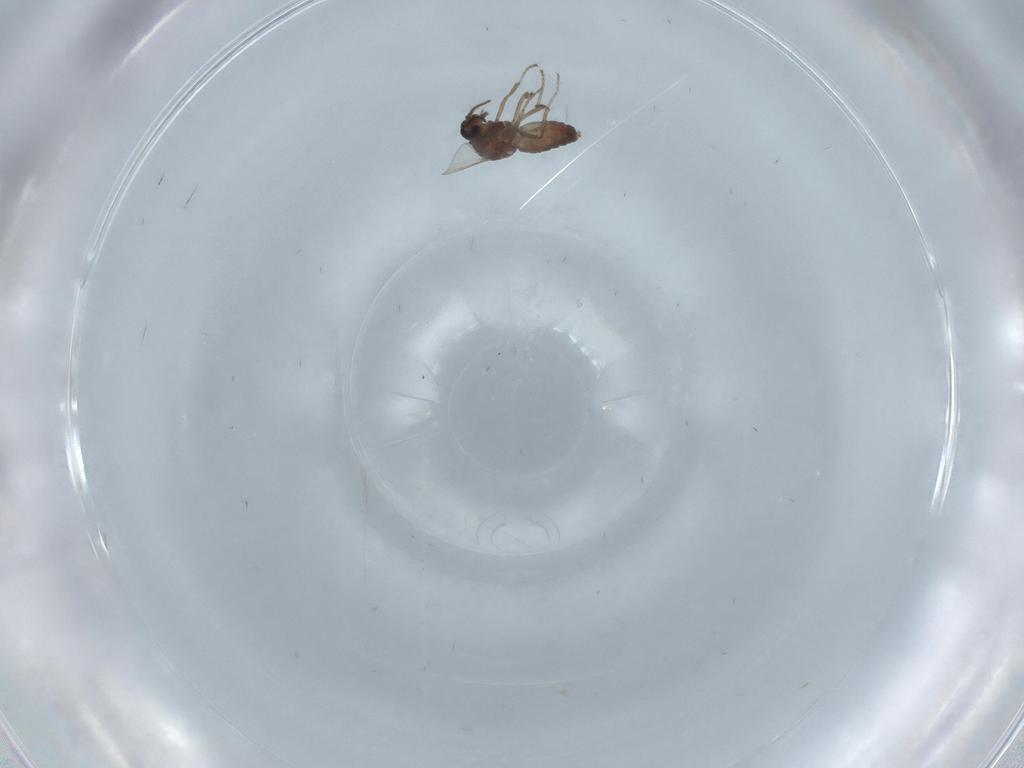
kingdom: Animalia
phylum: Arthropoda
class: Insecta
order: Diptera
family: Ceratopogonidae
